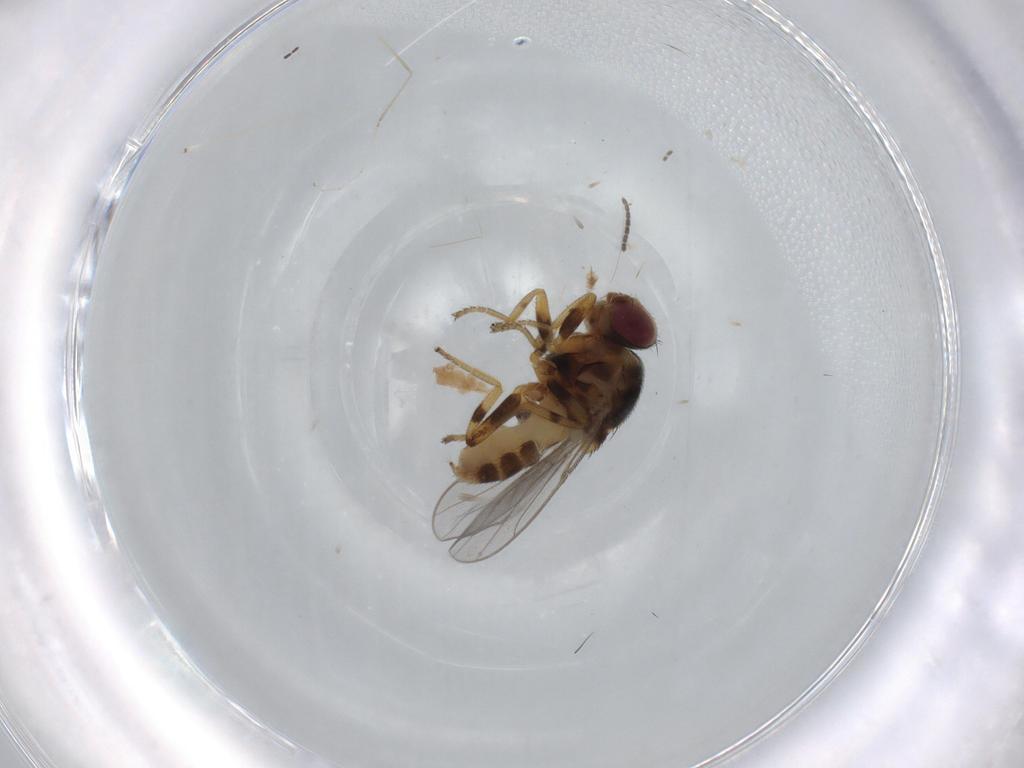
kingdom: Animalia
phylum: Arthropoda
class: Insecta
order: Diptera
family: Chloropidae
